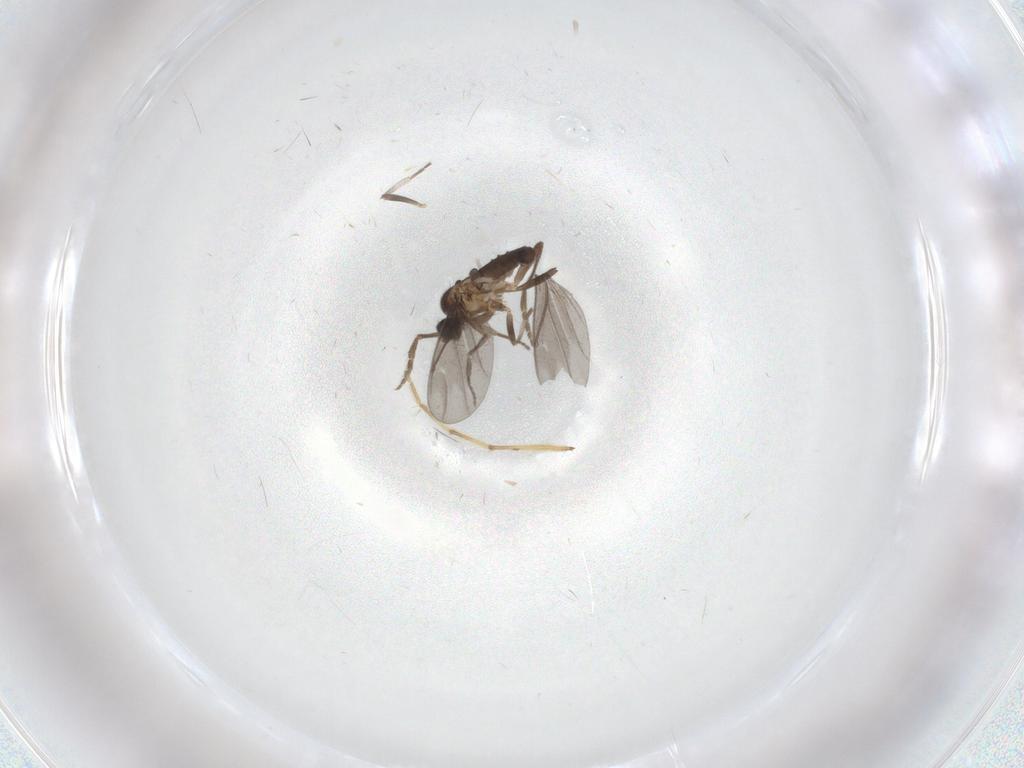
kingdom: Animalia
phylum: Arthropoda
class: Insecta
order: Diptera
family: Phoridae
